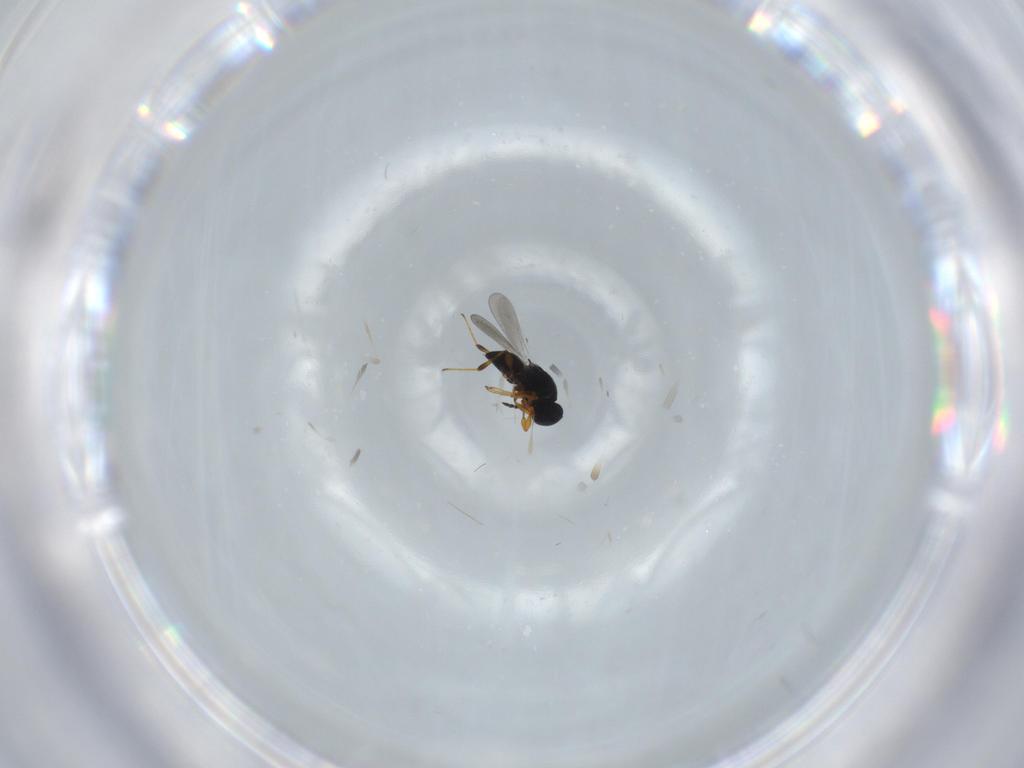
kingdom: Animalia
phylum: Arthropoda
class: Insecta
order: Hymenoptera
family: Platygastridae
